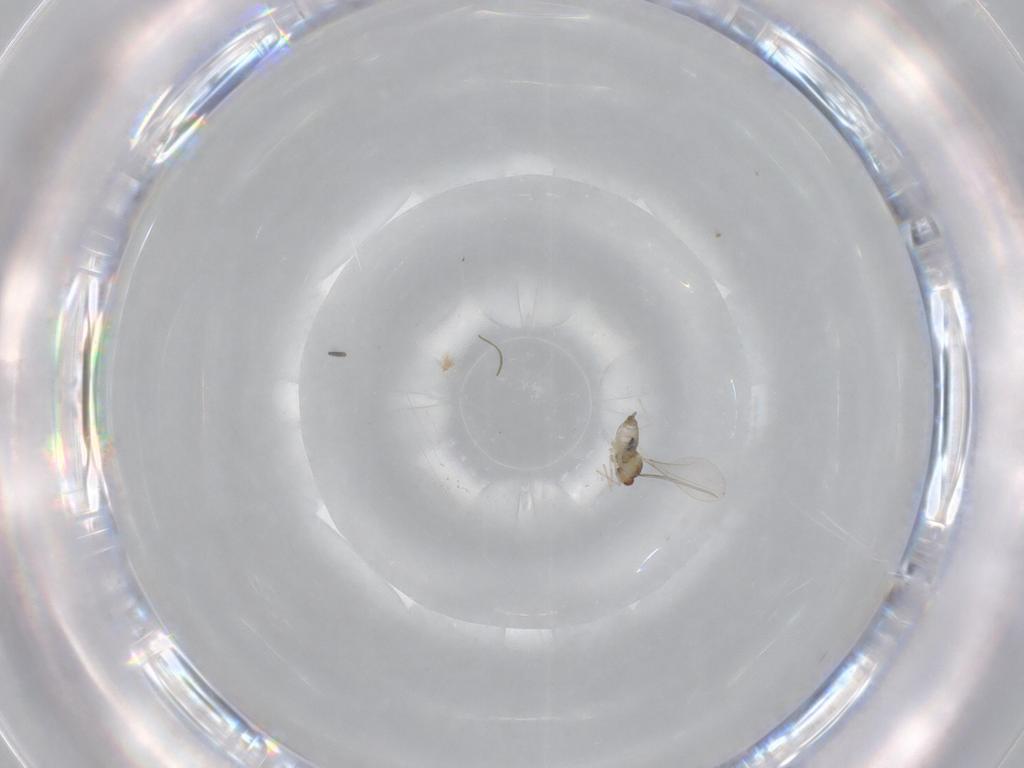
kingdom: Animalia
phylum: Arthropoda
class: Insecta
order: Diptera
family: Cecidomyiidae
